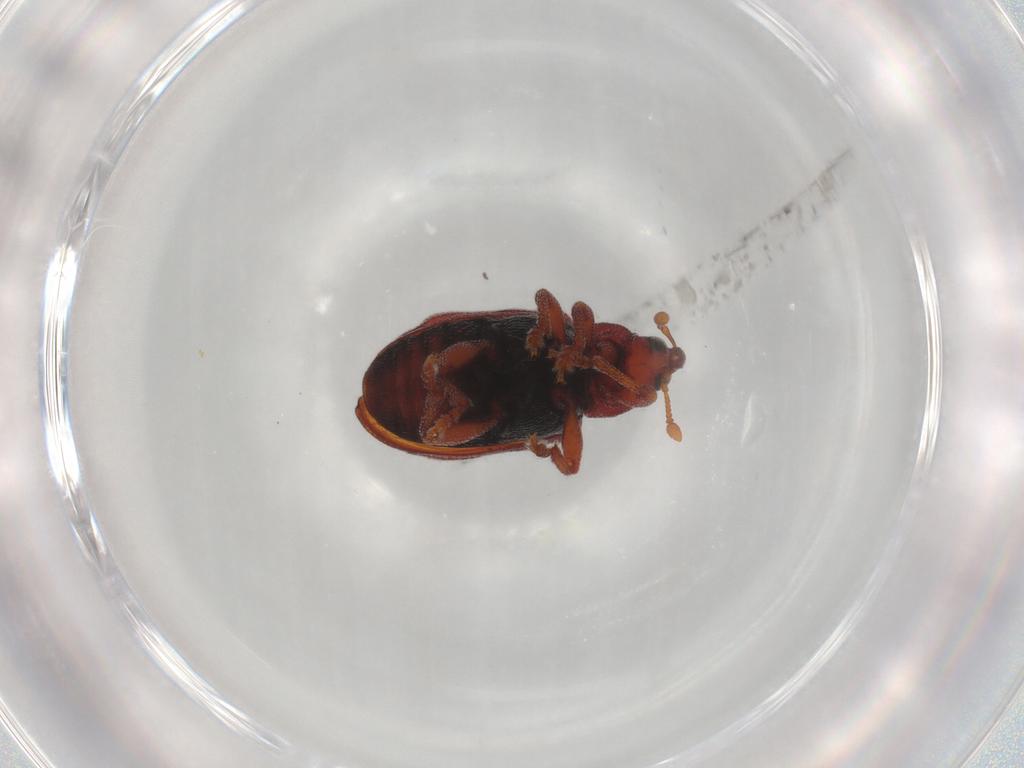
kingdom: Animalia
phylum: Arthropoda
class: Insecta
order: Coleoptera
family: Curculionidae
